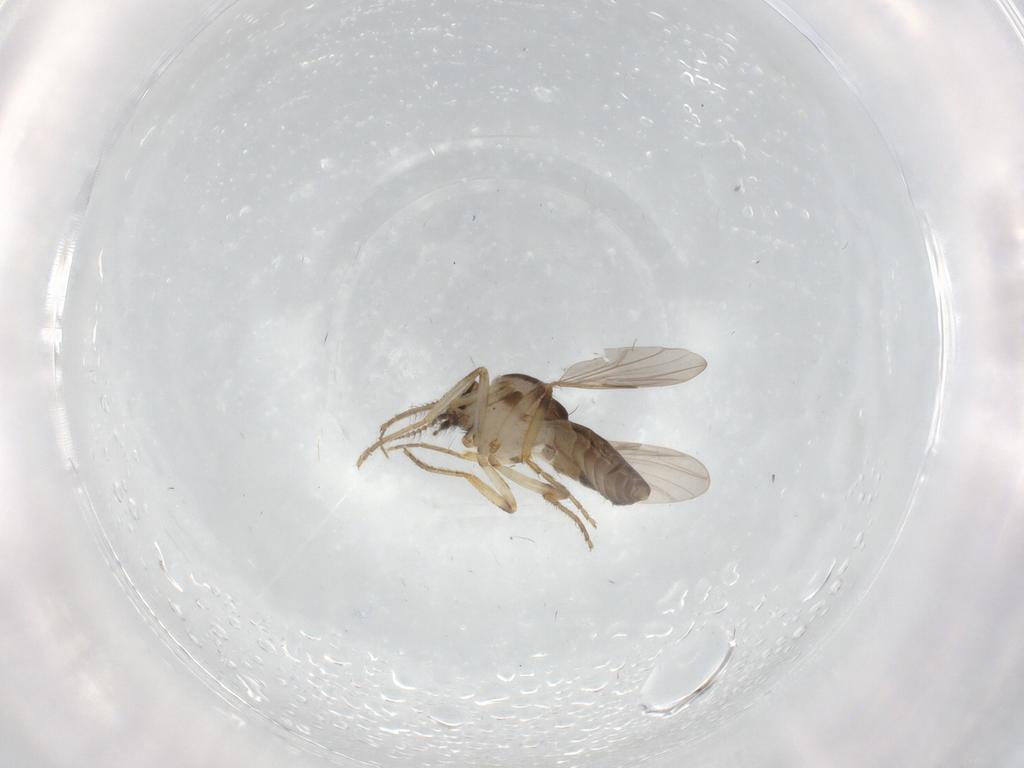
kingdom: Animalia
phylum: Arthropoda
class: Insecta
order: Diptera
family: Ceratopogonidae
